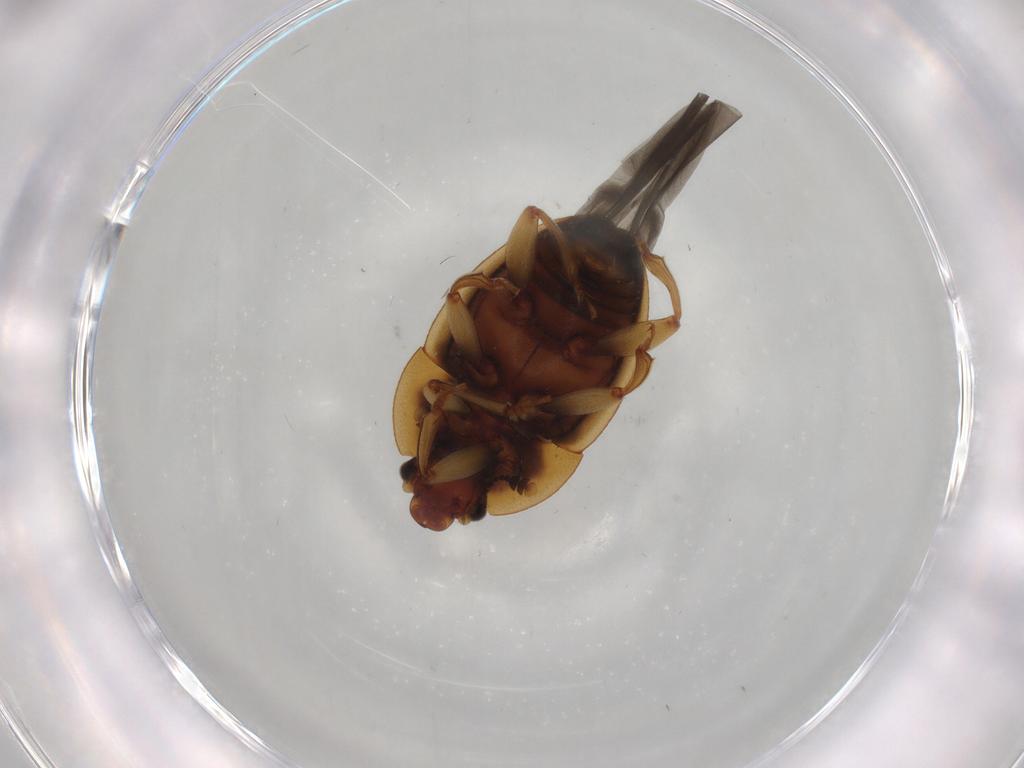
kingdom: Animalia
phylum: Arthropoda
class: Insecta
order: Coleoptera
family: Nitidulidae
